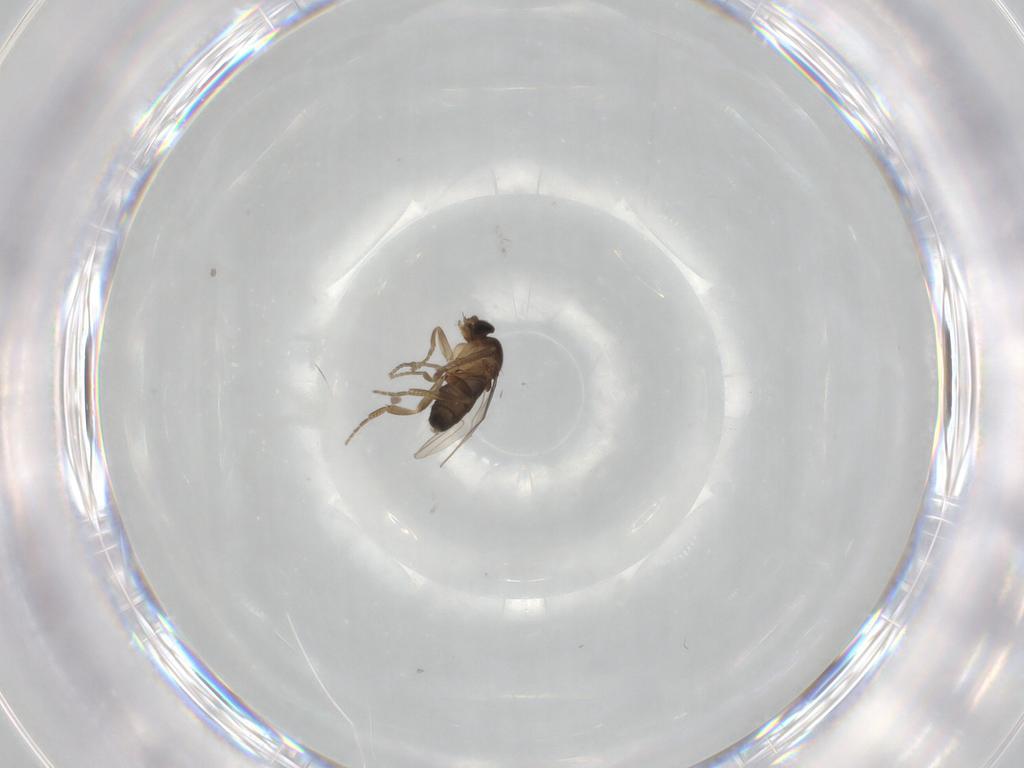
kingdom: Animalia
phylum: Arthropoda
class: Insecta
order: Diptera
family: Phoridae
